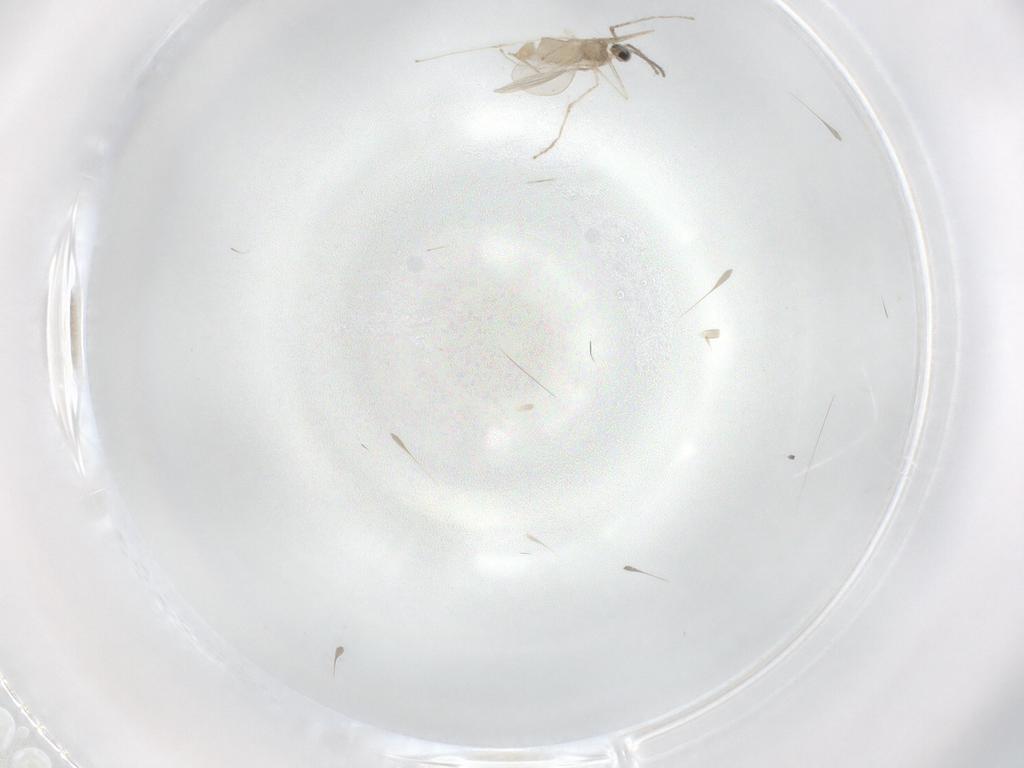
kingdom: Animalia
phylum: Arthropoda
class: Insecta
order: Diptera
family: Cecidomyiidae
